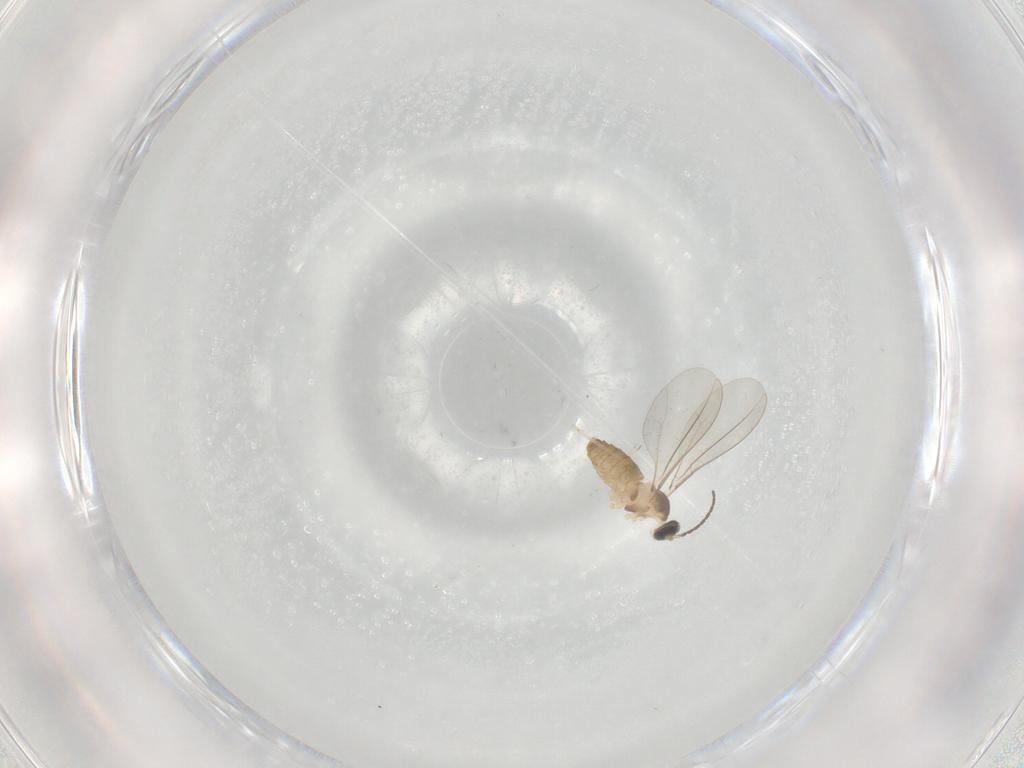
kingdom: Animalia
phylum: Arthropoda
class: Insecta
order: Diptera
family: Cecidomyiidae
